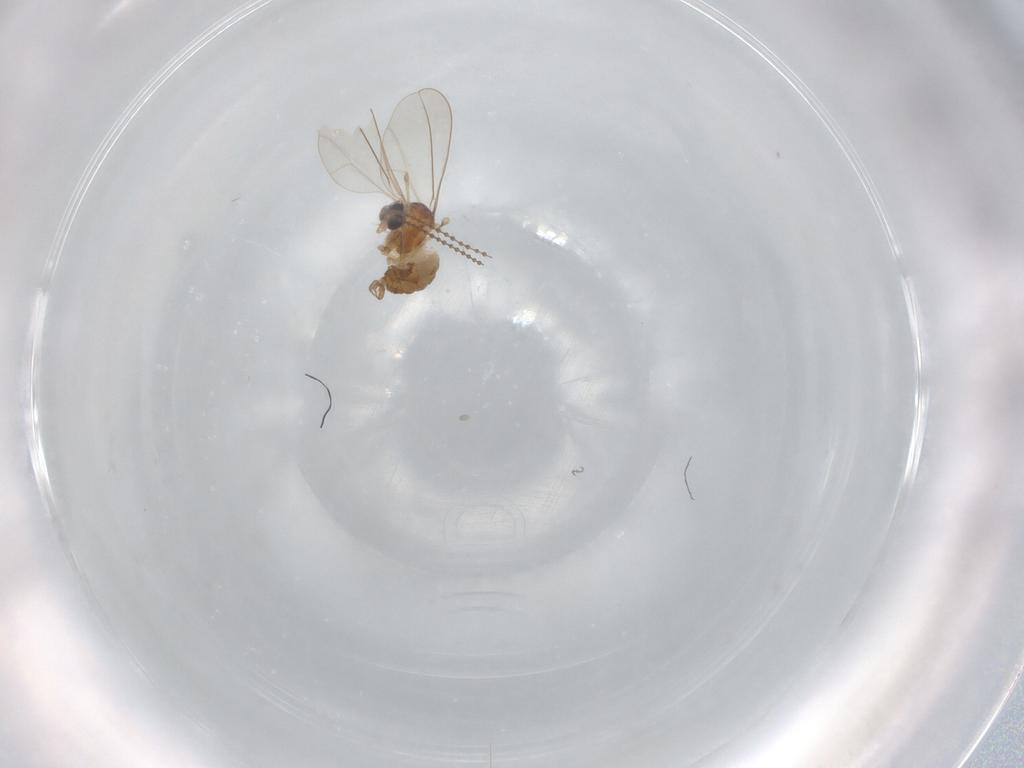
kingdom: Animalia
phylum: Arthropoda
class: Insecta
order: Diptera
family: Cecidomyiidae
